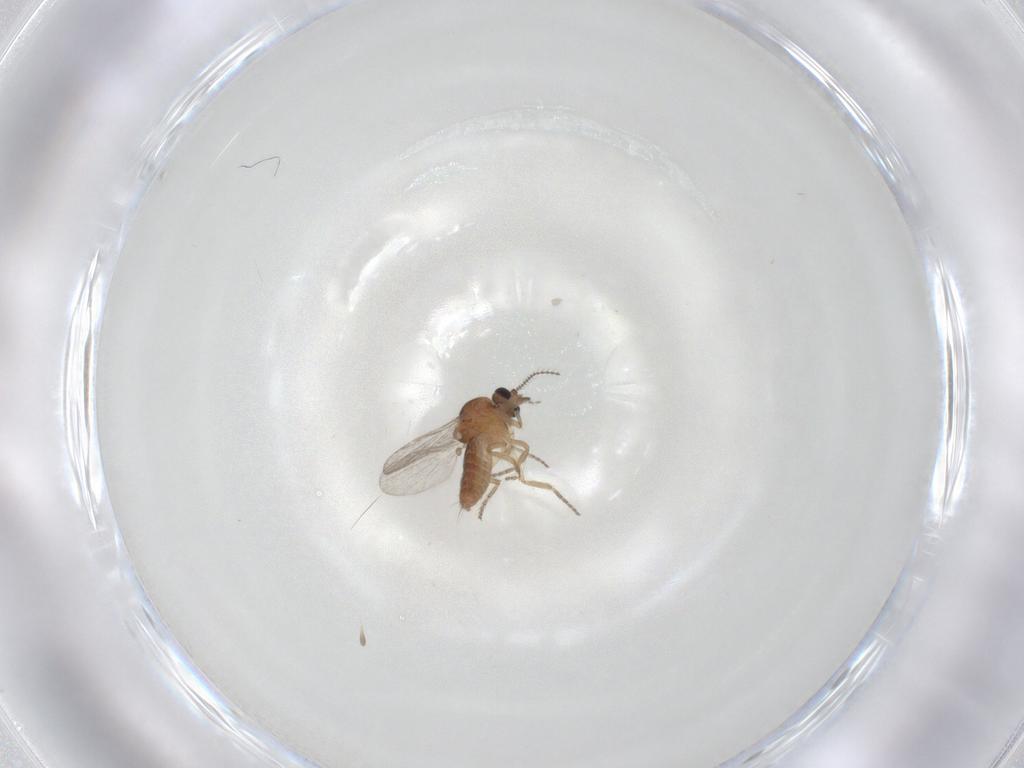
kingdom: Animalia
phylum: Arthropoda
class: Insecta
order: Diptera
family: Ceratopogonidae
